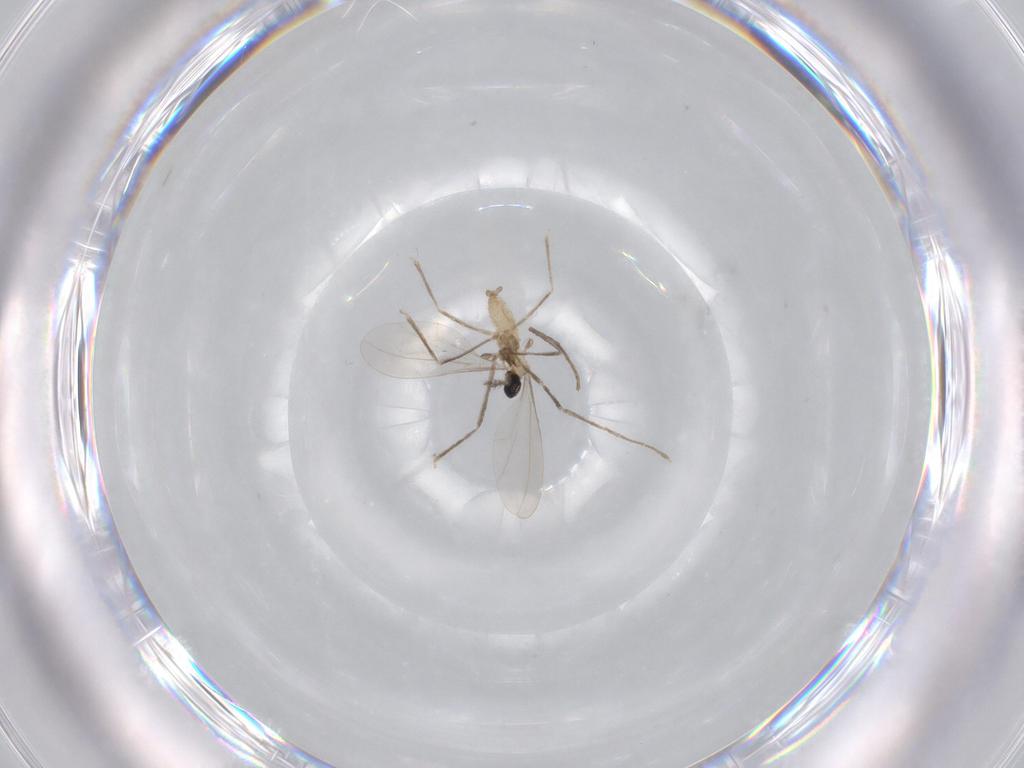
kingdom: Animalia
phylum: Arthropoda
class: Insecta
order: Diptera
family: Cecidomyiidae
